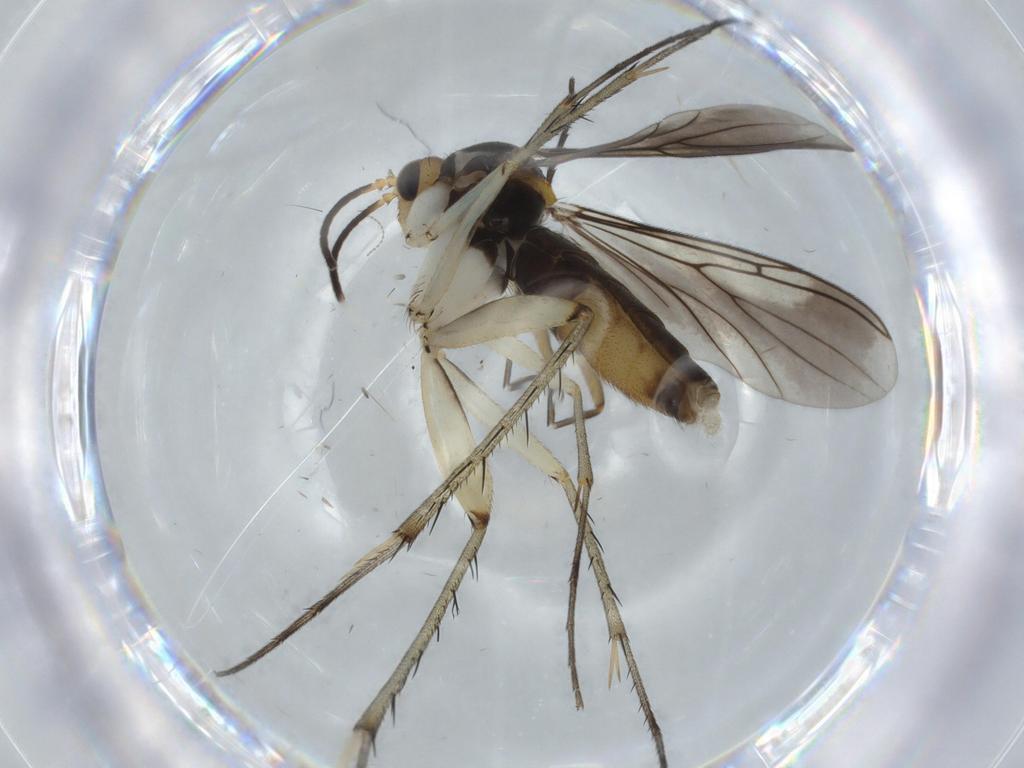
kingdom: Animalia
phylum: Arthropoda
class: Insecta
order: Diptera
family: Mycetophilidae
